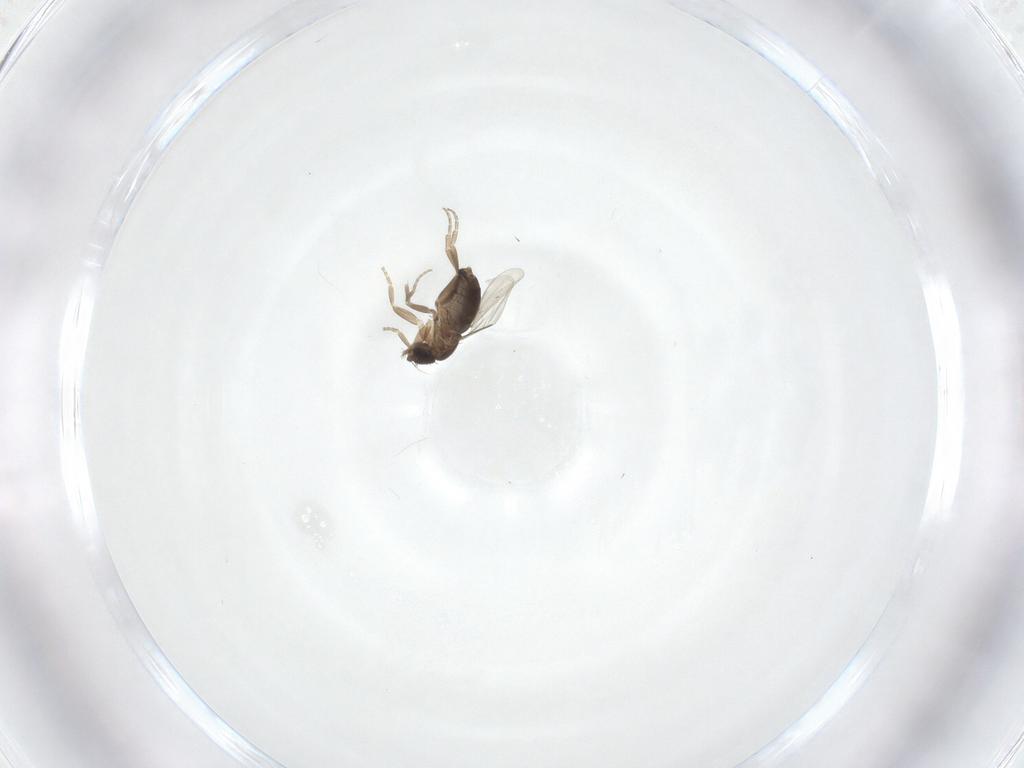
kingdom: Animalia
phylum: Arthropoda
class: Insecta
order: Diptera
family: Phoridae
